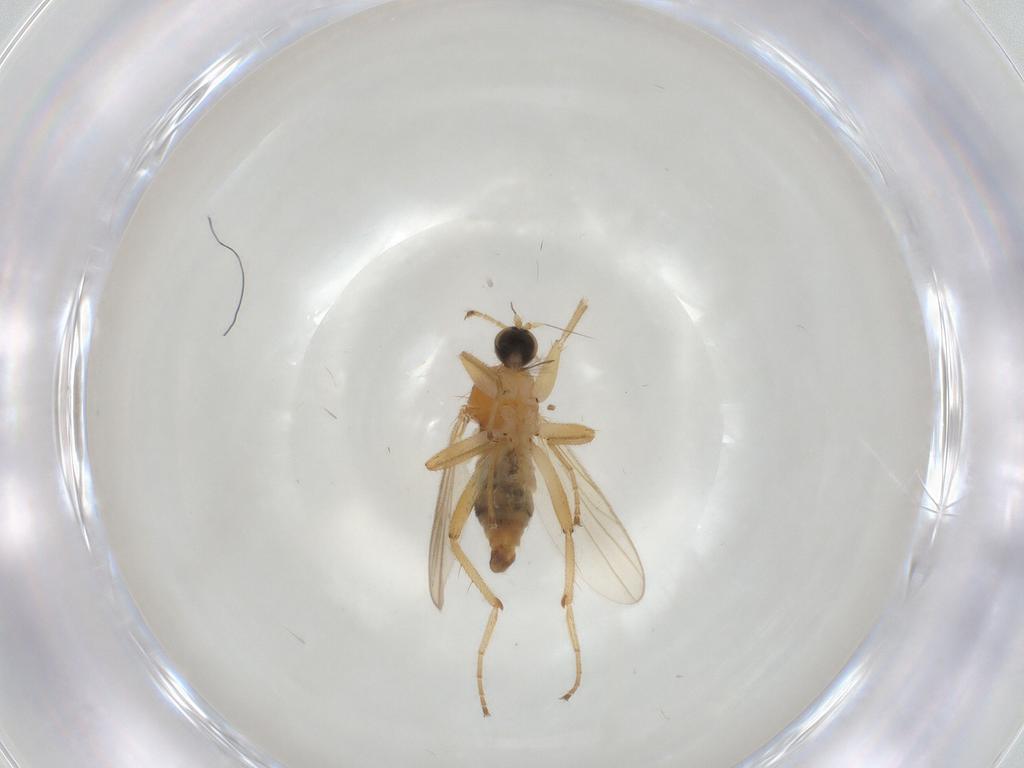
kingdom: Animalia
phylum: Arthropoda
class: Insecta
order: Diptera
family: Hybotidae
